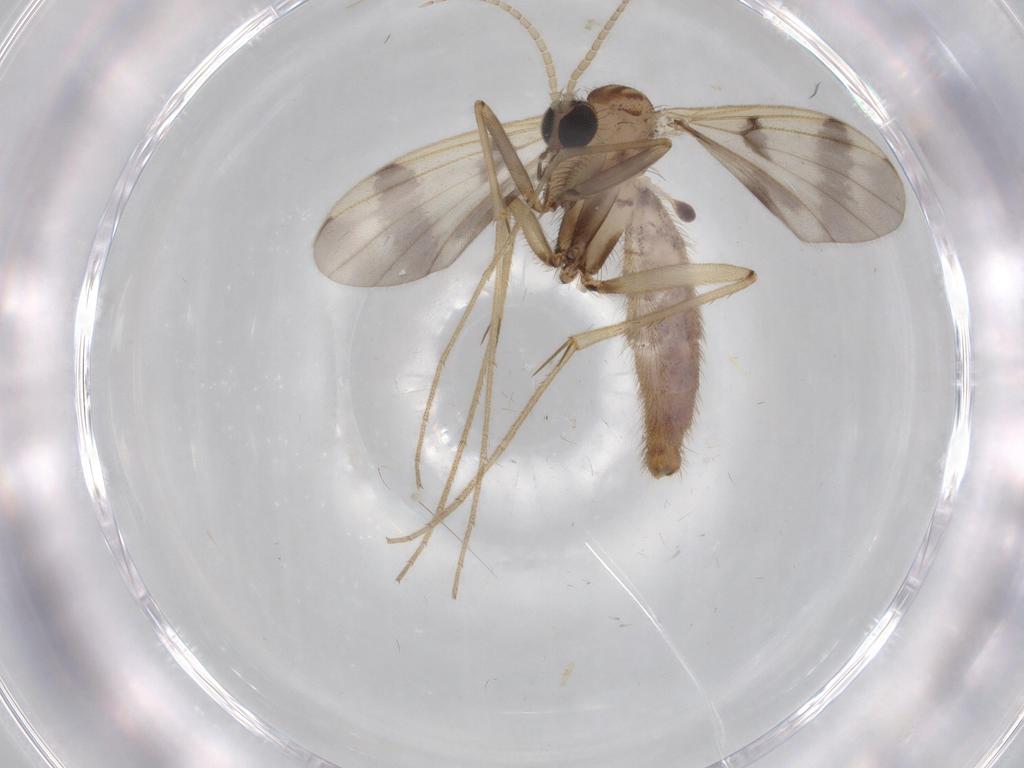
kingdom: Animalia
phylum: Arthropoda
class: Insecta
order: Diptera
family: Cecidomyiidae
